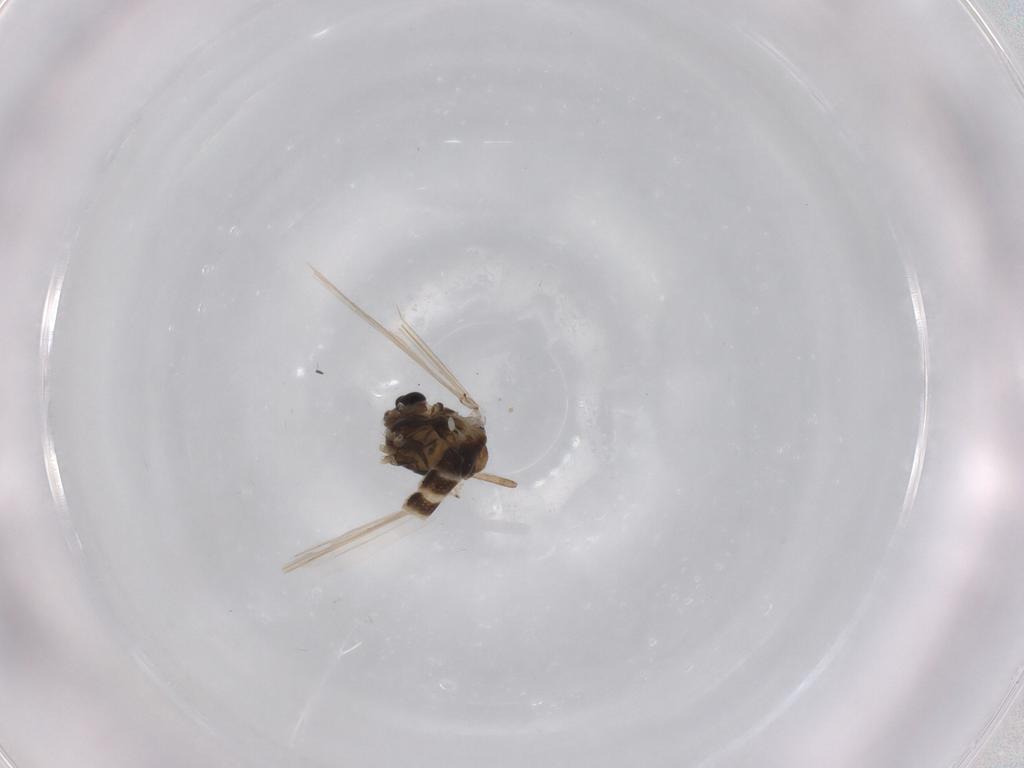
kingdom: Animalia
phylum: Arthropoda
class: Insecta
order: Diptera
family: Chironomidae
